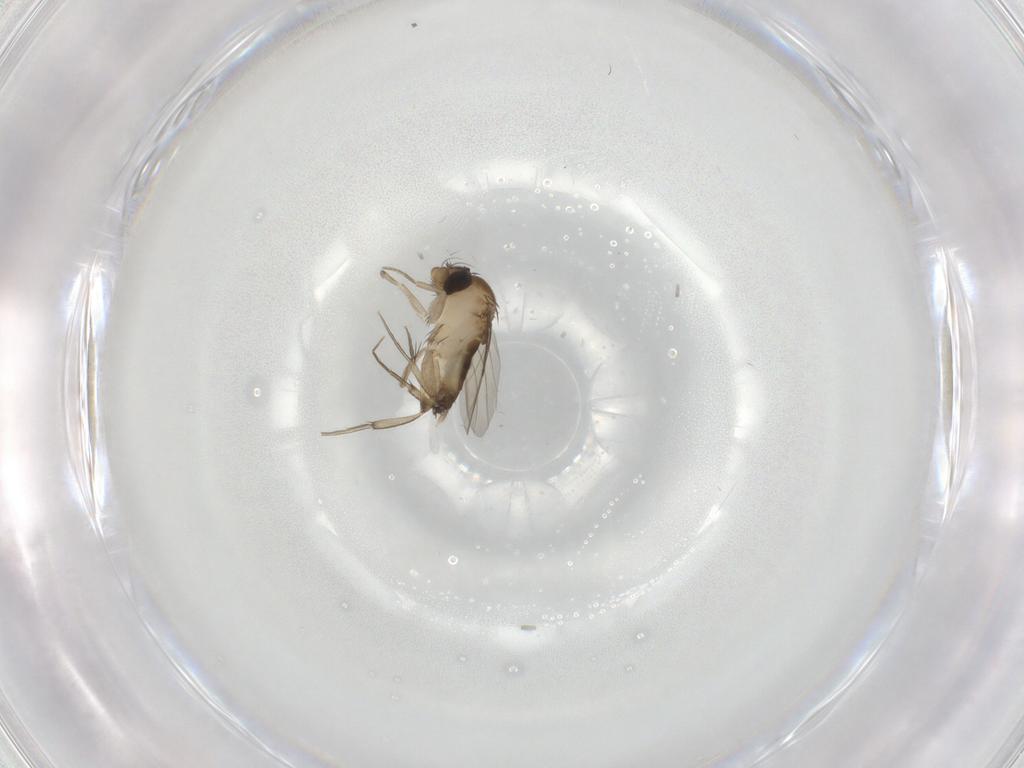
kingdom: Animalia
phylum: Arthropoda
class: Insecta
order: Diptera
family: Phoridae
